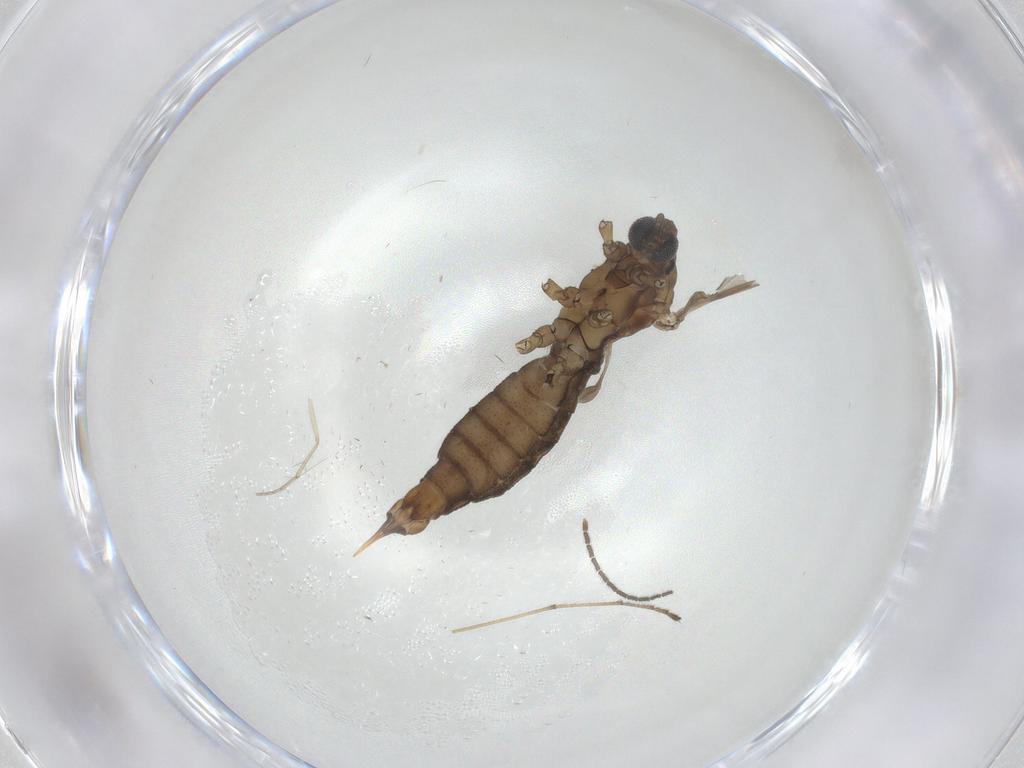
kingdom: Animalia
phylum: Arthropoda
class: Insecta
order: Diptera
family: Limoniidae
